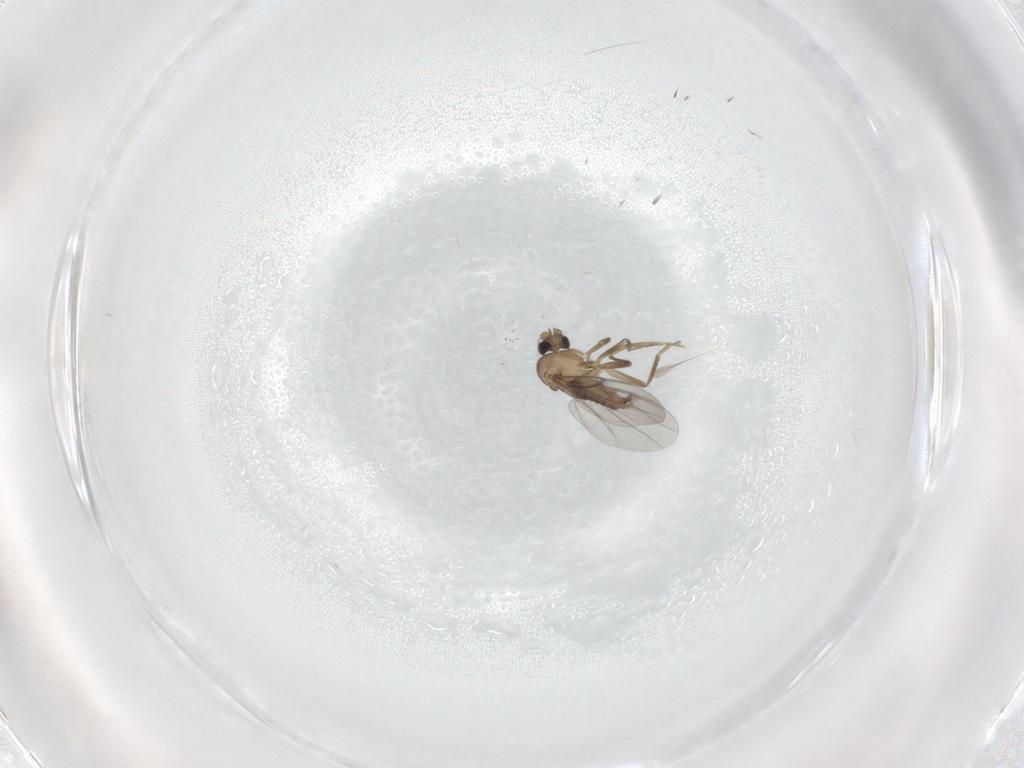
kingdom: Animalia
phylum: Arthropoda
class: Insecta
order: Diptera
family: Cecidomyiidae
